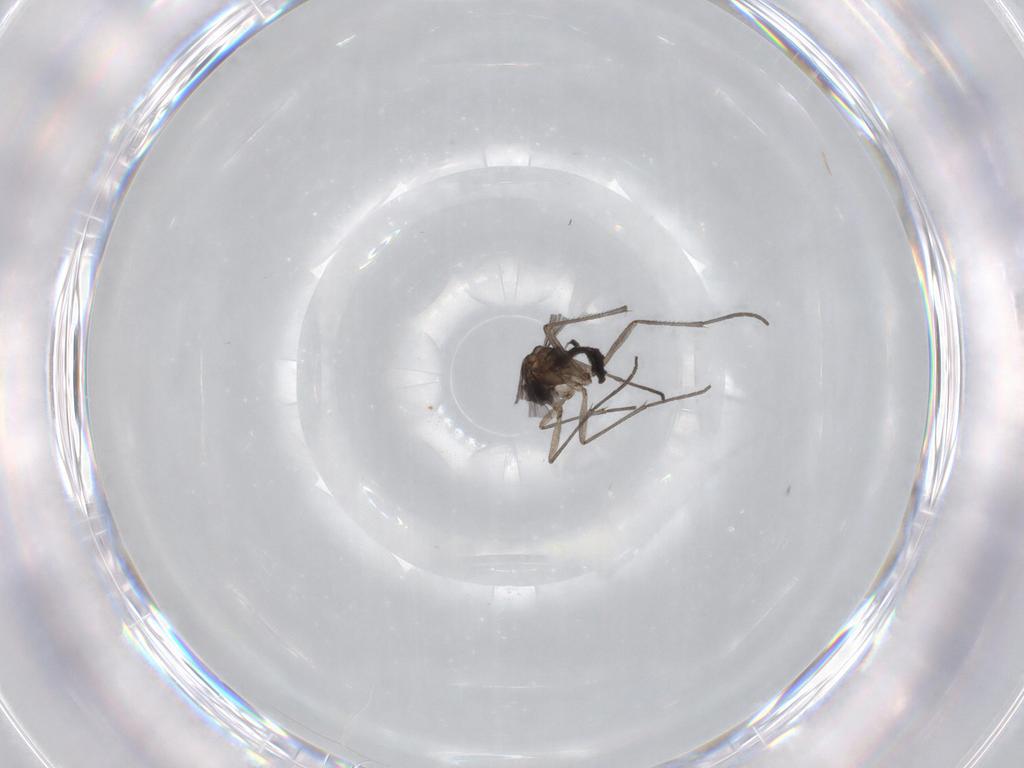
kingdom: Animalia
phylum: Arthropoda
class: Insecta
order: Diptera
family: Sciaridae
